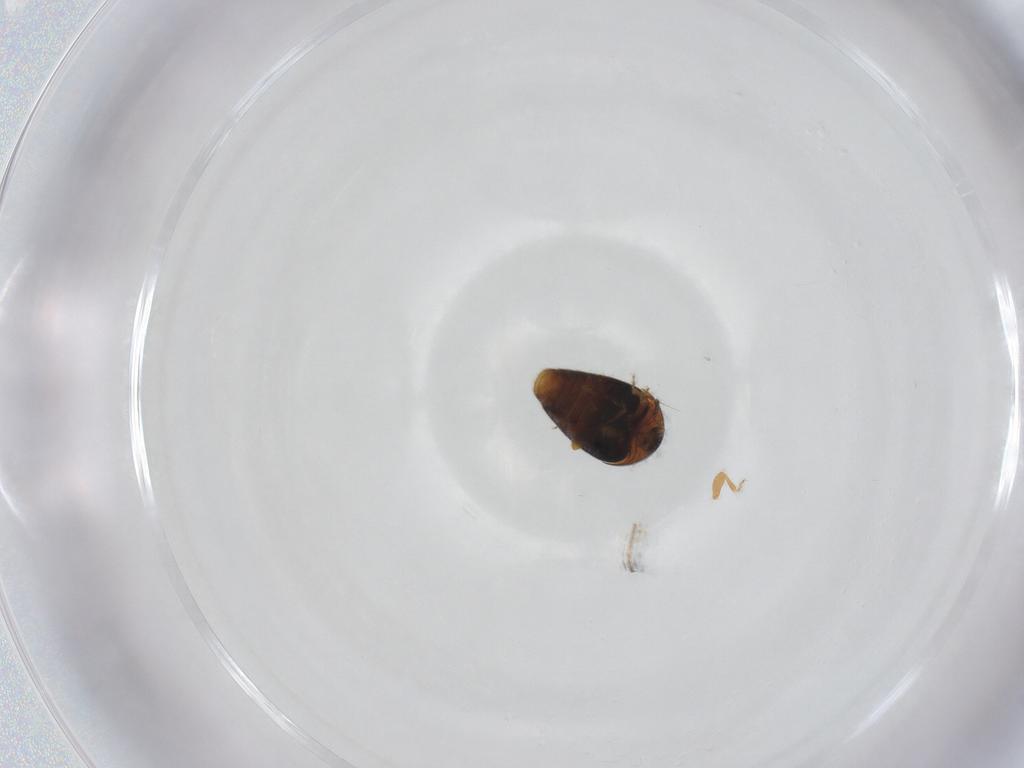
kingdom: Animalia
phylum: Arthropoda
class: Insecta
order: Coleoptera
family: Corylophidae
